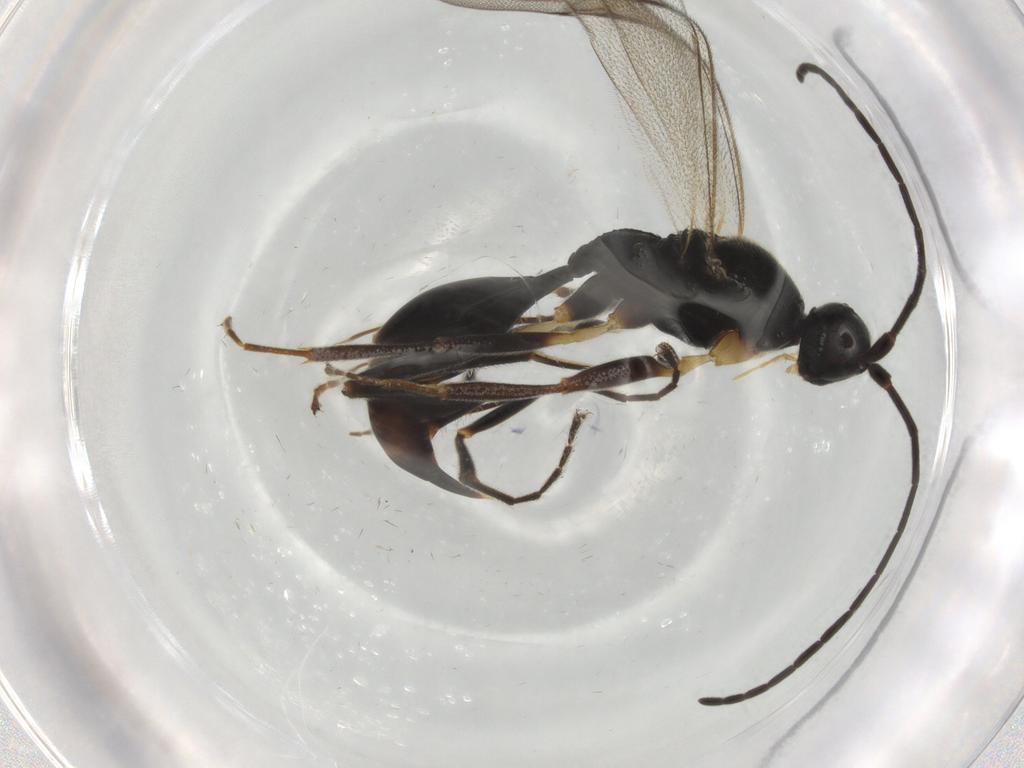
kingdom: Animalia
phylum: Arthropoda
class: Insecta
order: Hymenoptera
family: Proctotrupidae
